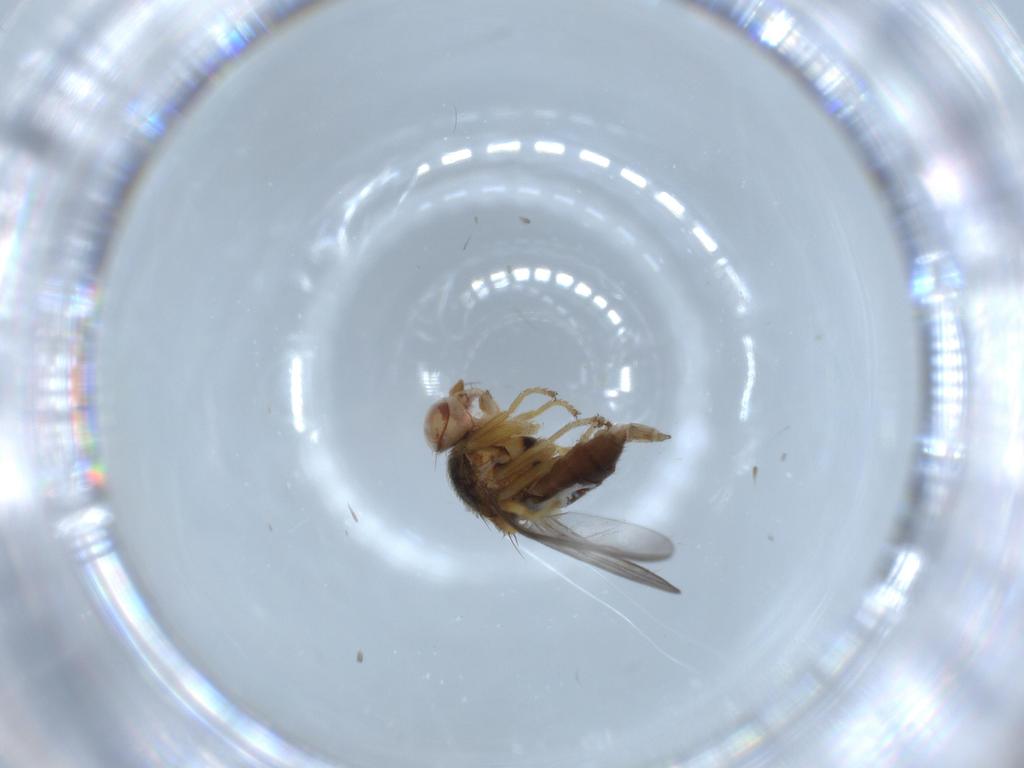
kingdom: Animalia
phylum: Arthropoda
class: Insecta
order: Diptera
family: Chloropidae
